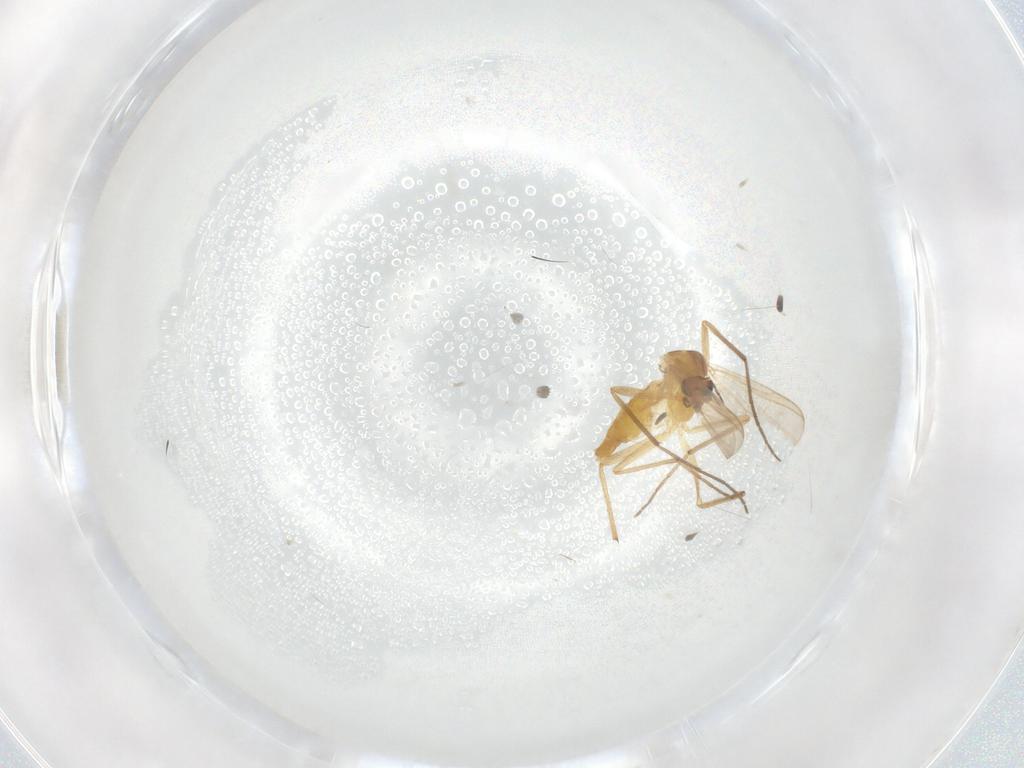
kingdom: Animalia
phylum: Arthropoda
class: Insecta
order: Diptera
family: Chironomidae
